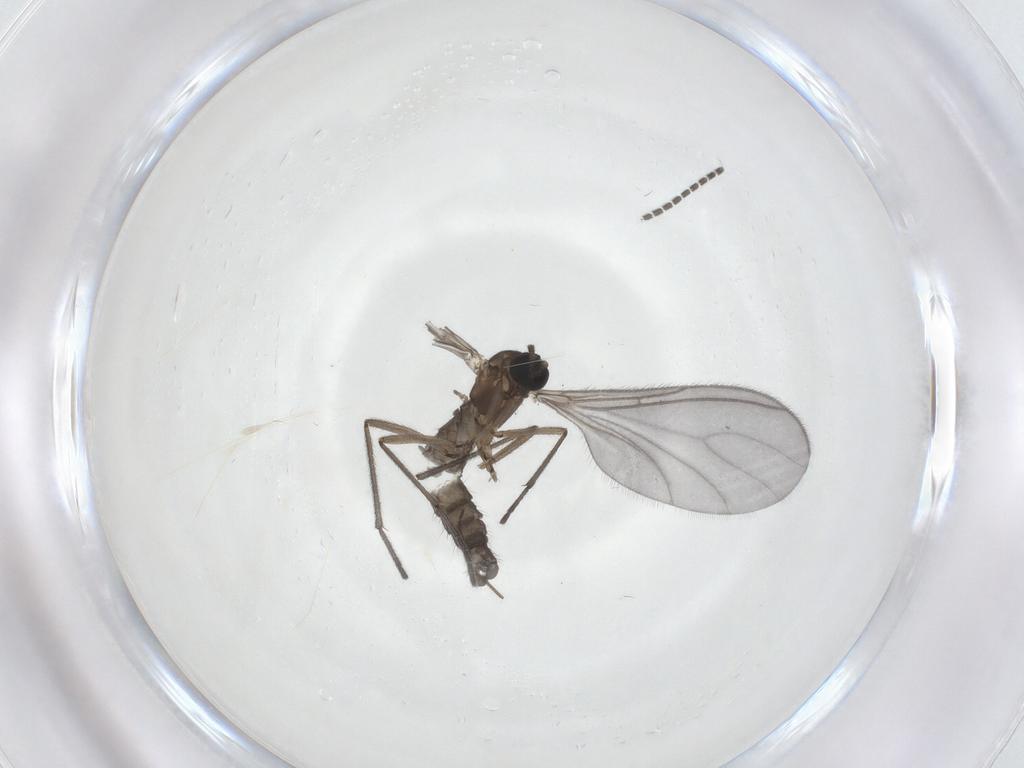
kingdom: Animalia
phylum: Arthropoda
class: Insecta
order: Diptera
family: Sciaridae
